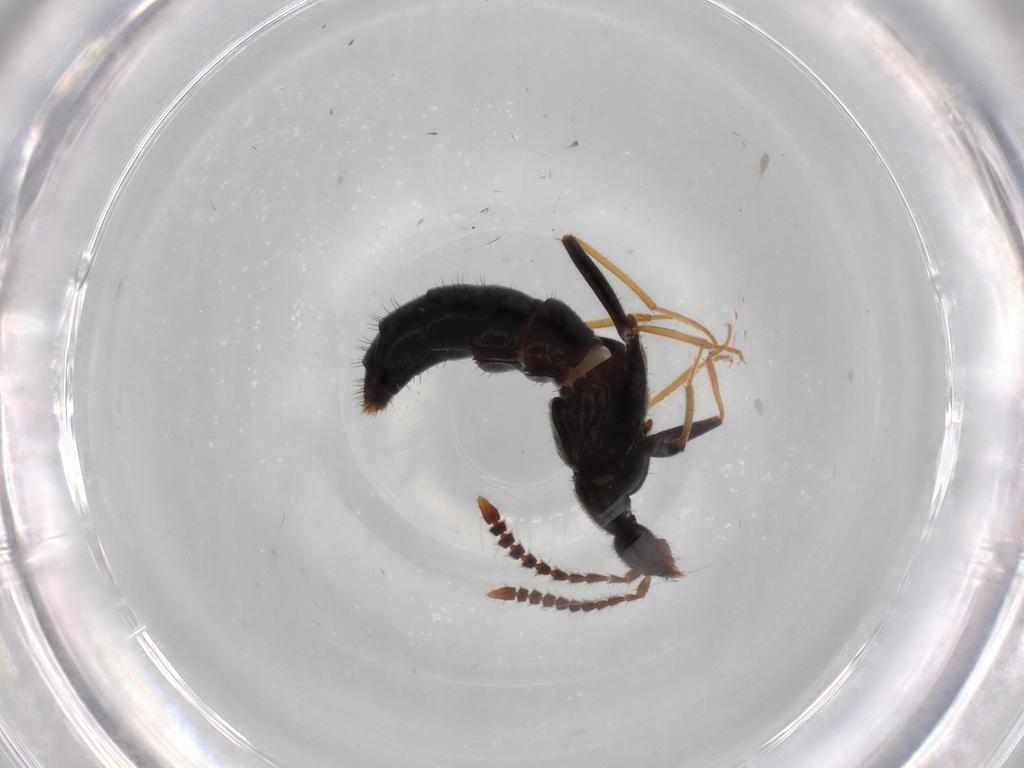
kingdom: Animalia
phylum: Arthropoda
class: Insecta
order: Coleoptera
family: Staphylinidae
